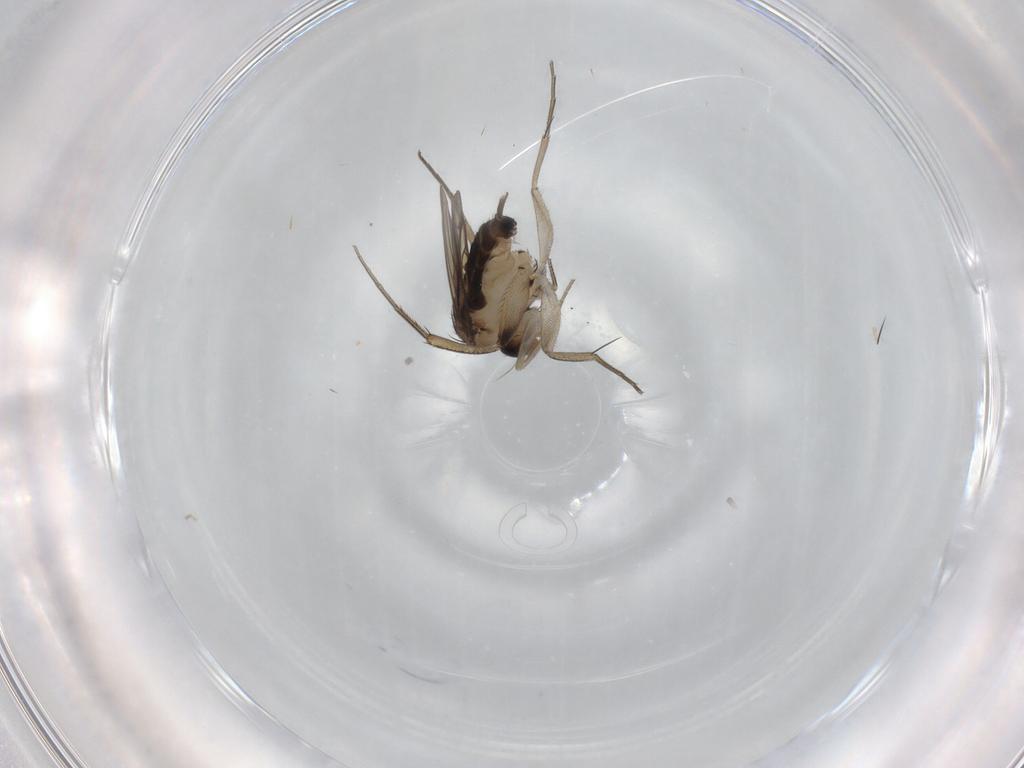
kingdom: Animalia
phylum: Arthropoda
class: Insecta
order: Diptera
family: Phoridae
